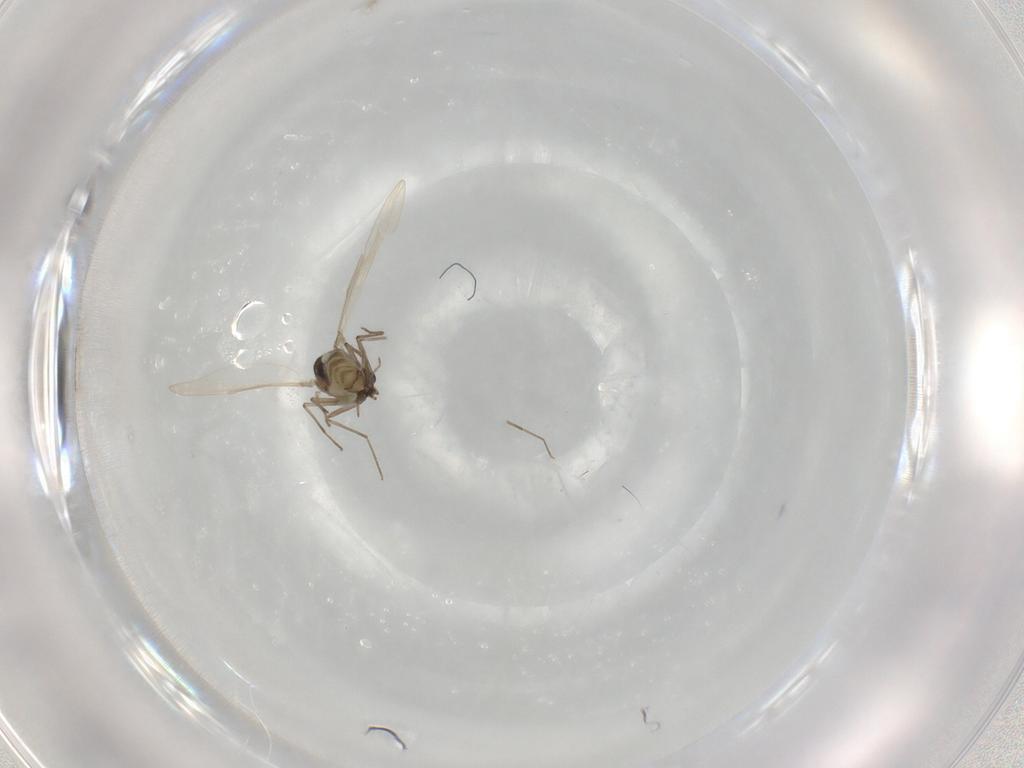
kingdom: Animalia
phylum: Arthropoda
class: Insecta
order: Diptera
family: Chironomidae
